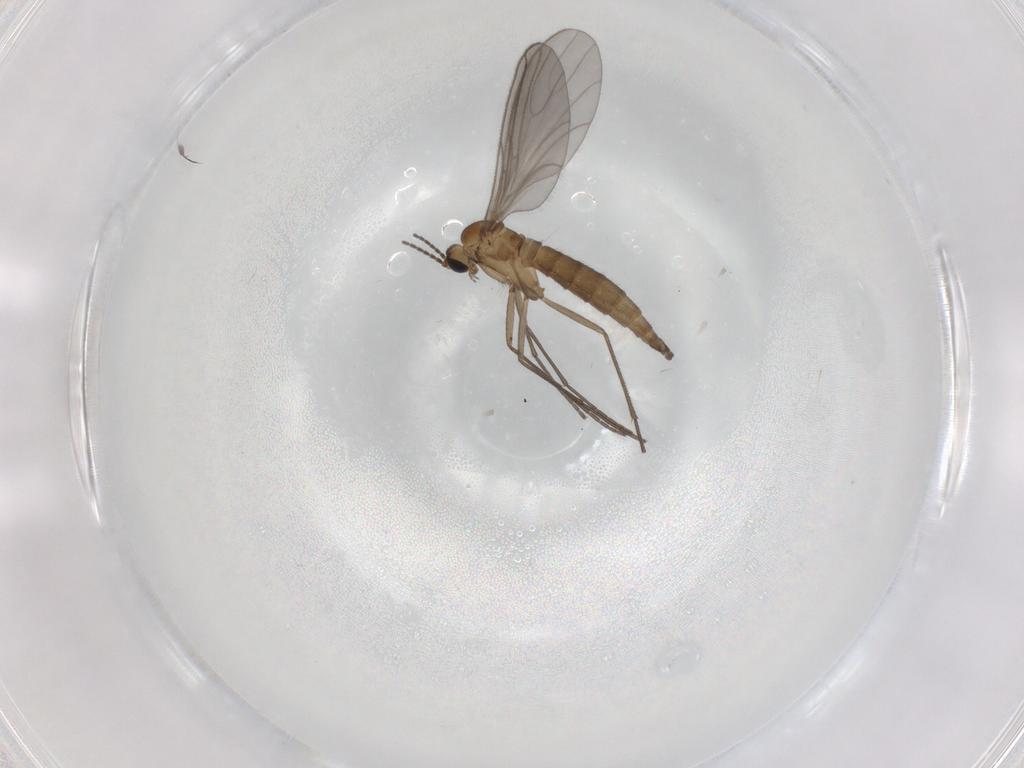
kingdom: Animalia
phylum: Arthropoda
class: Insecta
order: Diptera
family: Sciaridae
